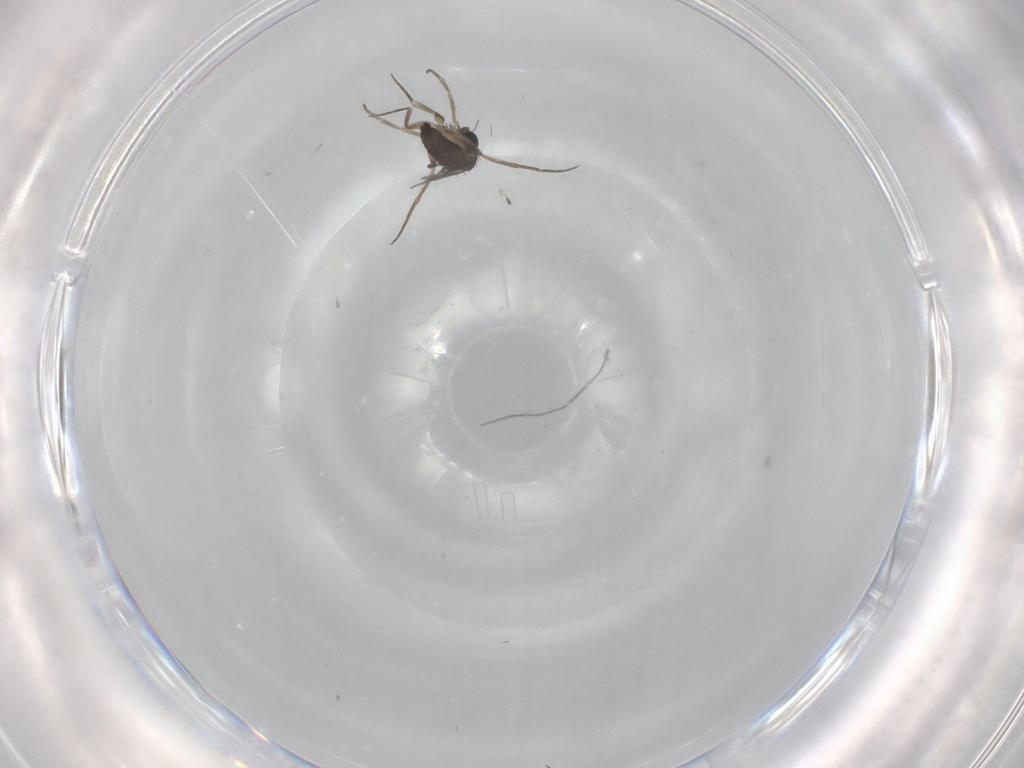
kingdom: Animalia
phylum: Arthropoda
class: Insecta
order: Diptera
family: Phoridae
